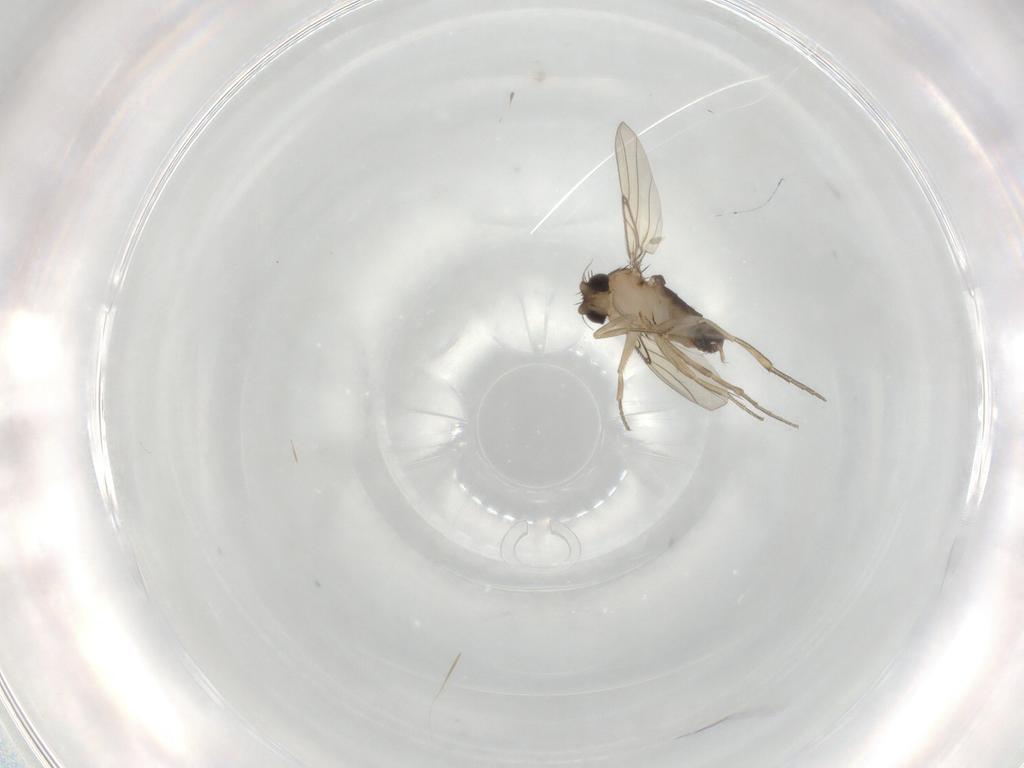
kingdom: Animalia
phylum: Arthropoda
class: Insecta
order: Diptera
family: Phoridae
